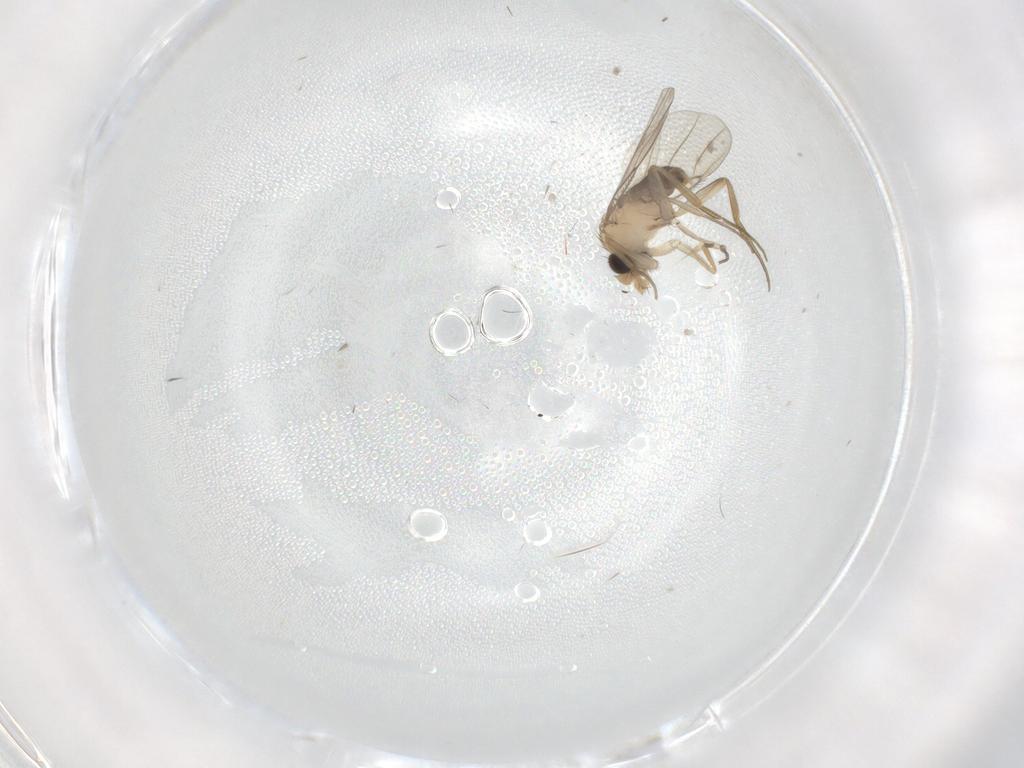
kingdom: Animalia
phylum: Arthropoda
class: Insecta
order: Diptera
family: Phoridae
